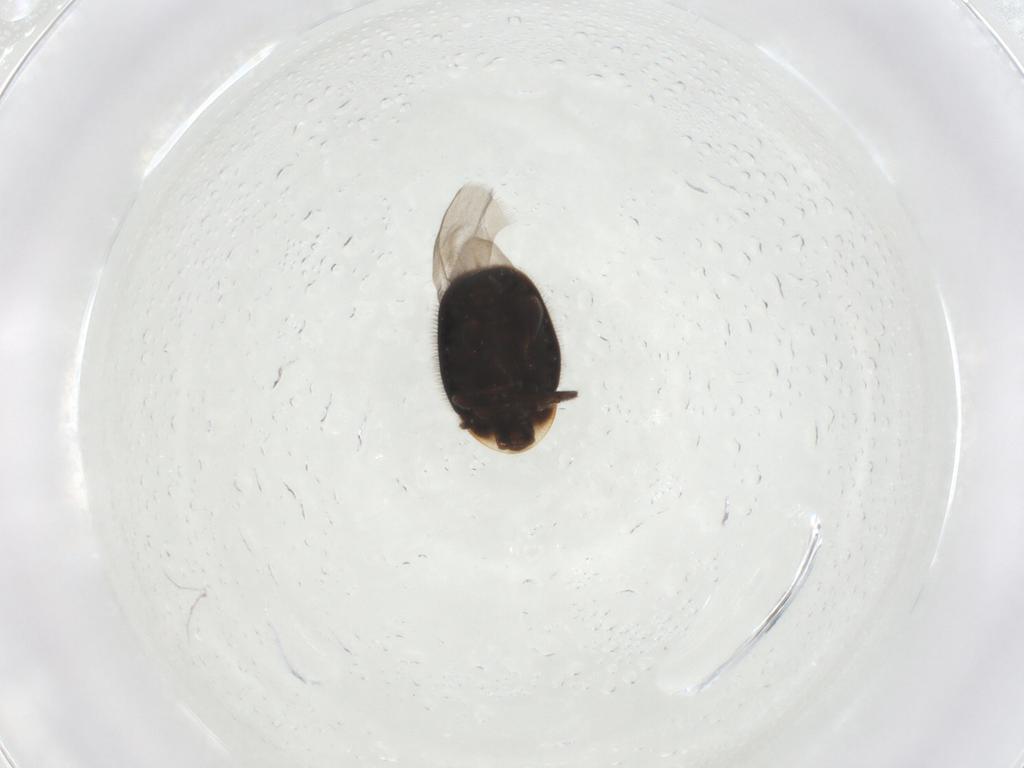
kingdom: Animalia
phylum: Arthropoda
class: Insecta
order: Coleoptera
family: Corylophidae
